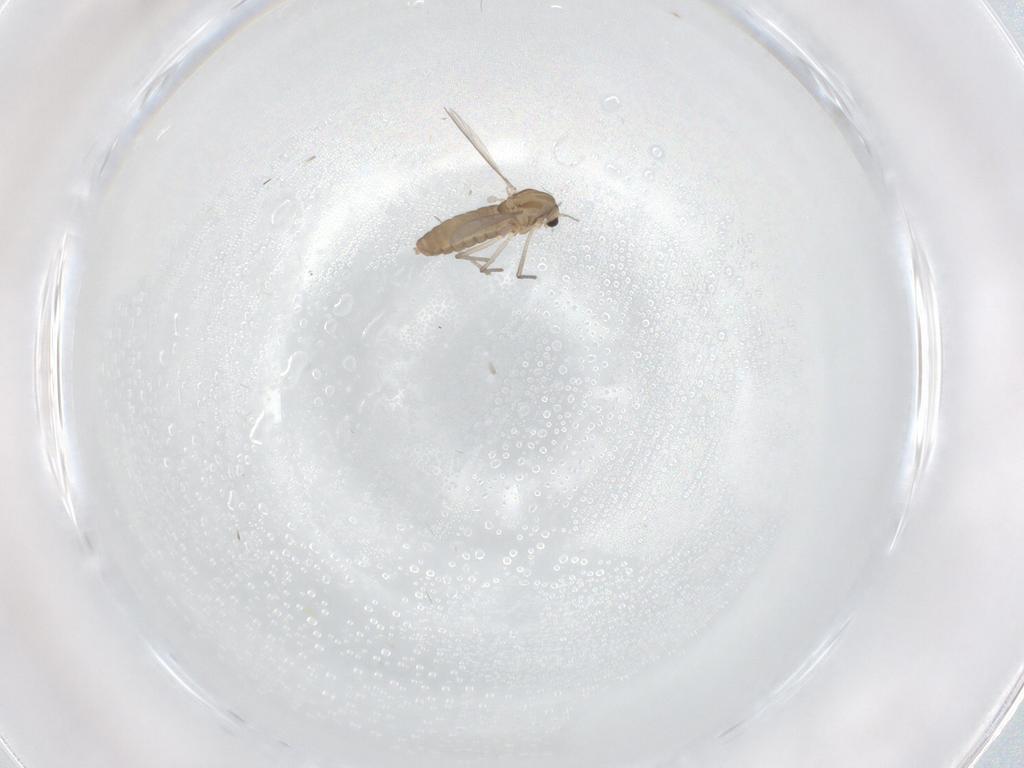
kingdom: Animalia
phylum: Arthropoda
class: Insecta
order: Diptera
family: Chironomidae
